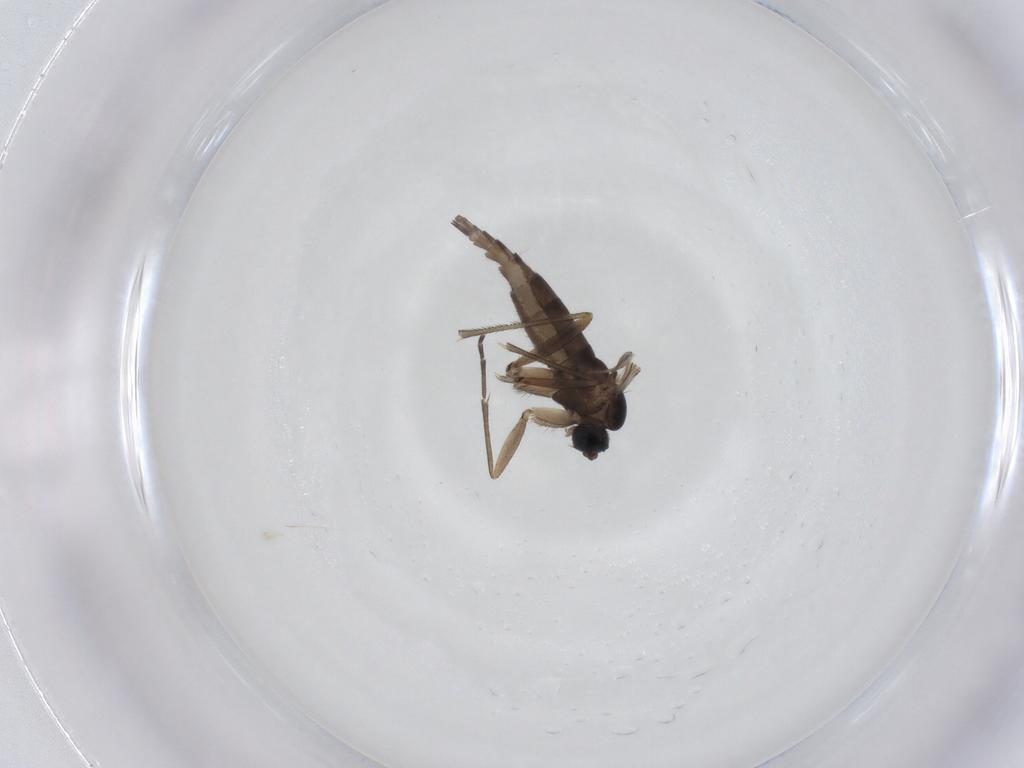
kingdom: Animalia
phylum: Arthropoda
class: Insecta
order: Diptera
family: Sciaridae
